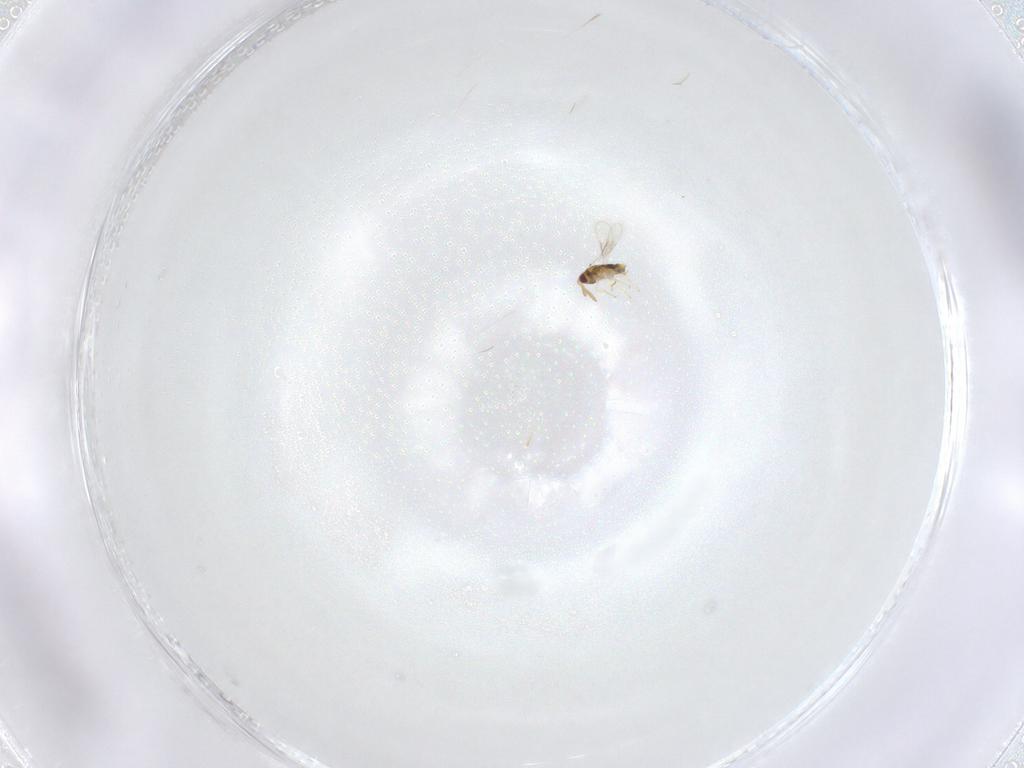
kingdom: Animalia
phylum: Arthropoda
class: Insecta
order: Hymenoptera
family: Aphelinidae
